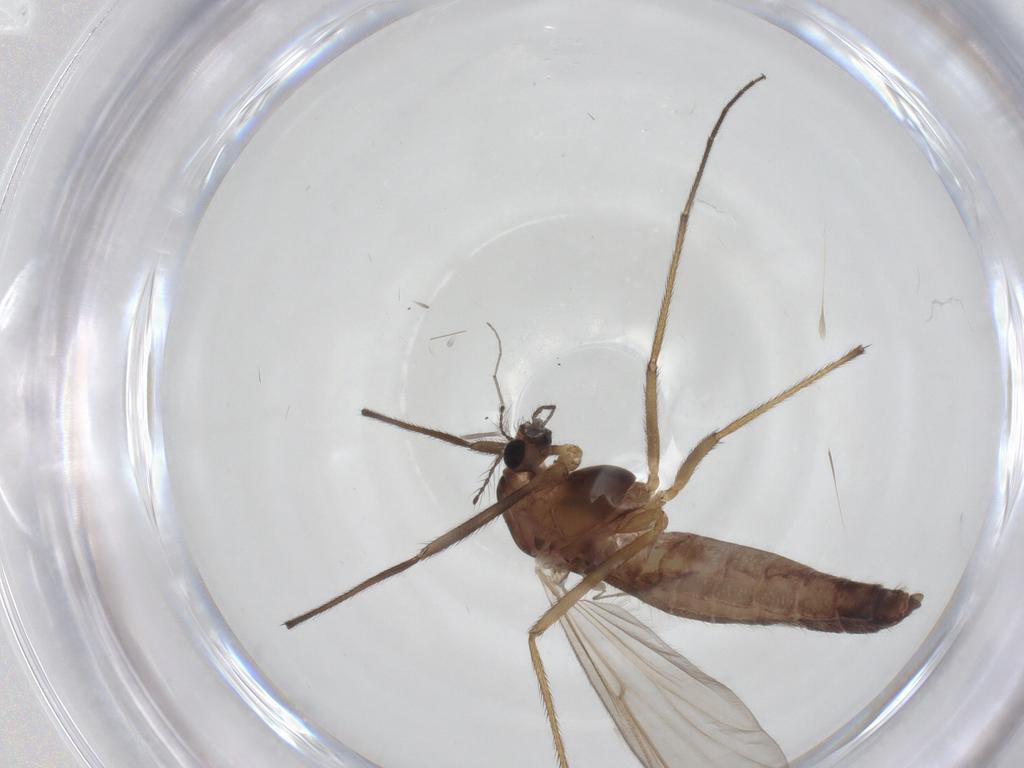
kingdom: Animalia
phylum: Arthropoda
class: Insecta
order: Diptera
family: Chironomidae
